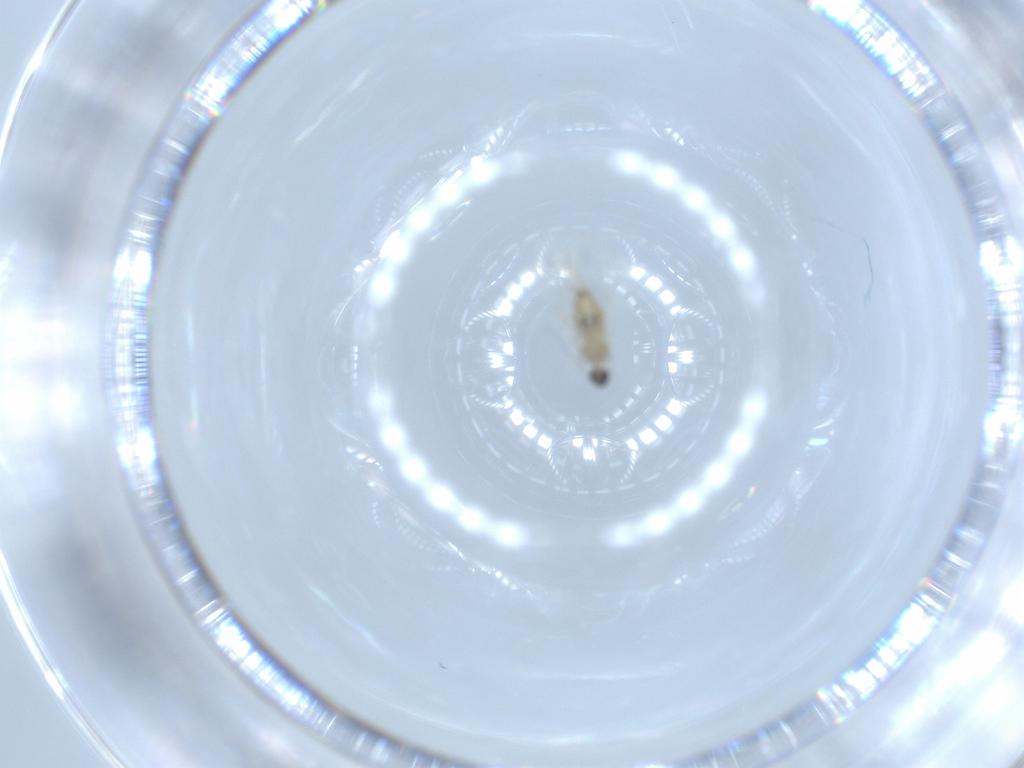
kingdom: Animalia
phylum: Arthropoda
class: Insecta
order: Diptera
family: Cecidomyiidae
